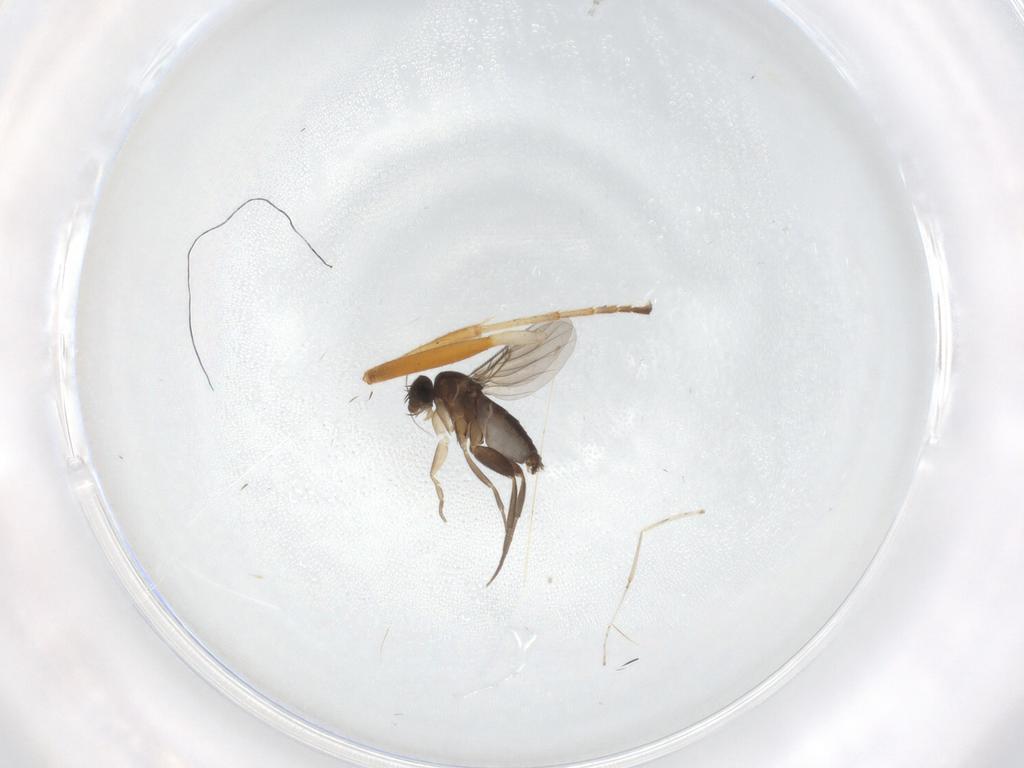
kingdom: Animalia
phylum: Arthropoda
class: Insecta
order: Diptera
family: Phoridae
